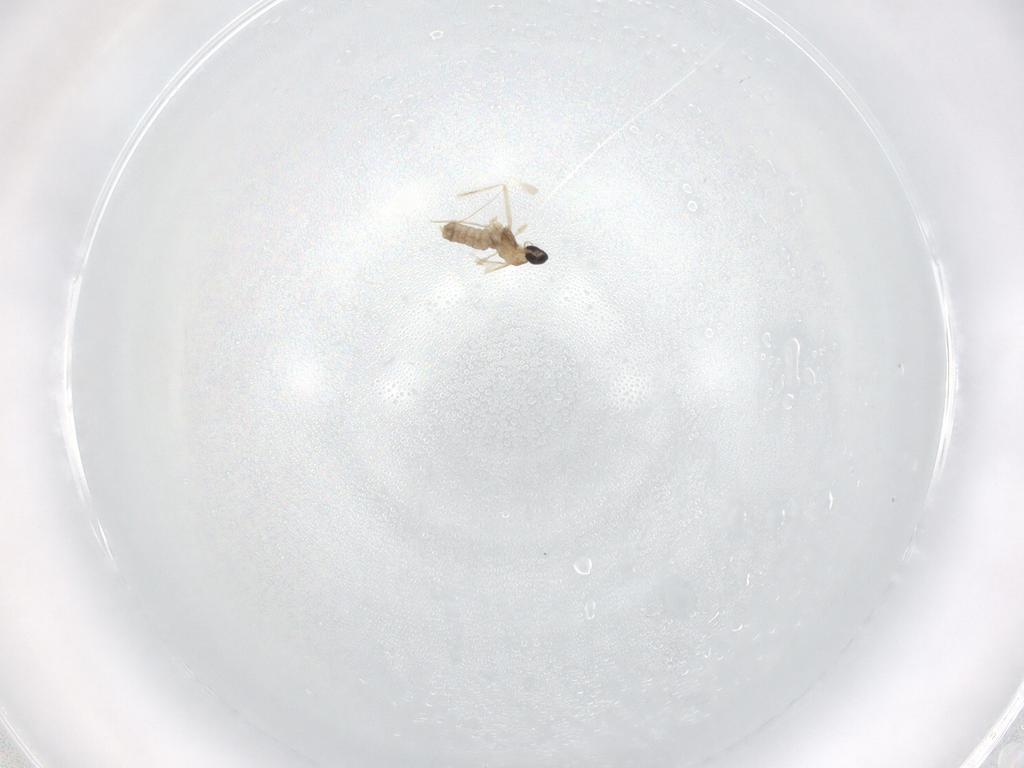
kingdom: Animalia
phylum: Arthropoda
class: Insecta
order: Diptera
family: Cecidomyiidae
